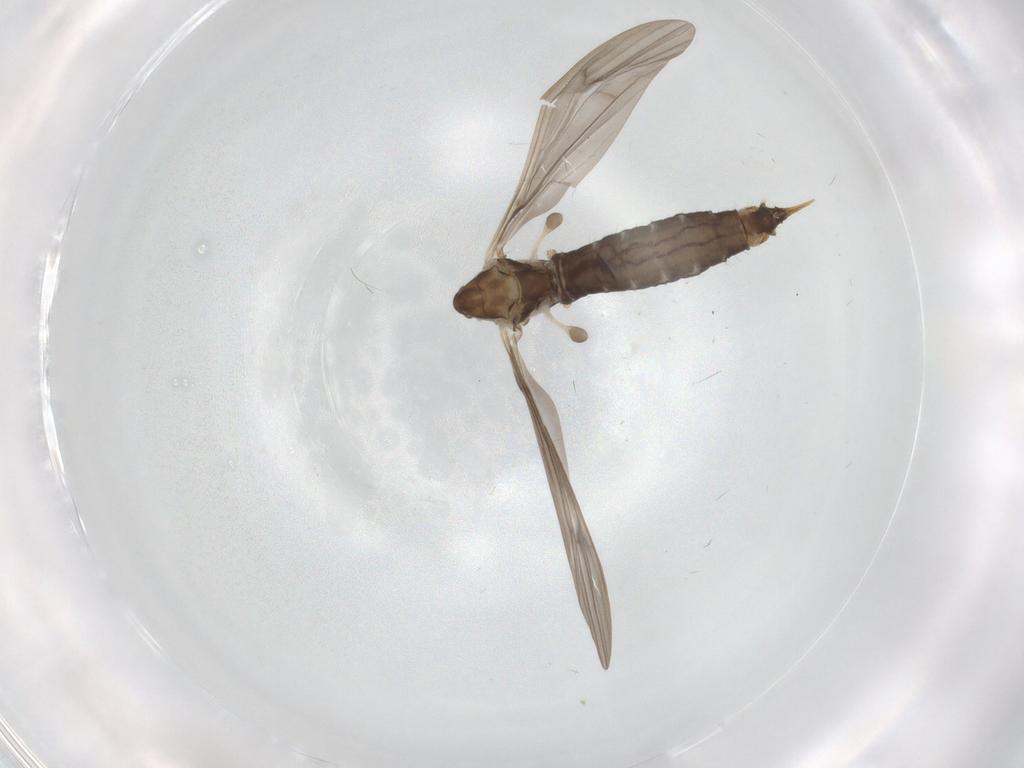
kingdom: Animalia
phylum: Arthropoda
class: Insecta
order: Diptera
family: Limoniidae
